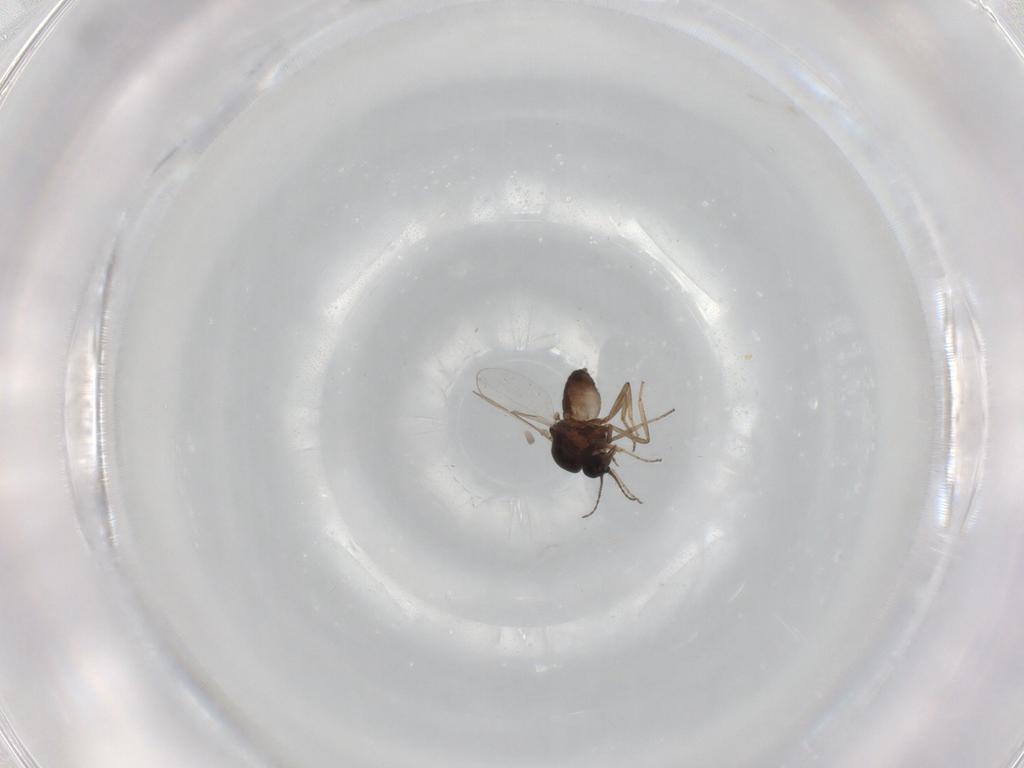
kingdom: Animalia
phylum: Arthropoda
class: Insecta
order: Diptera
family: Ceratopogonidae
